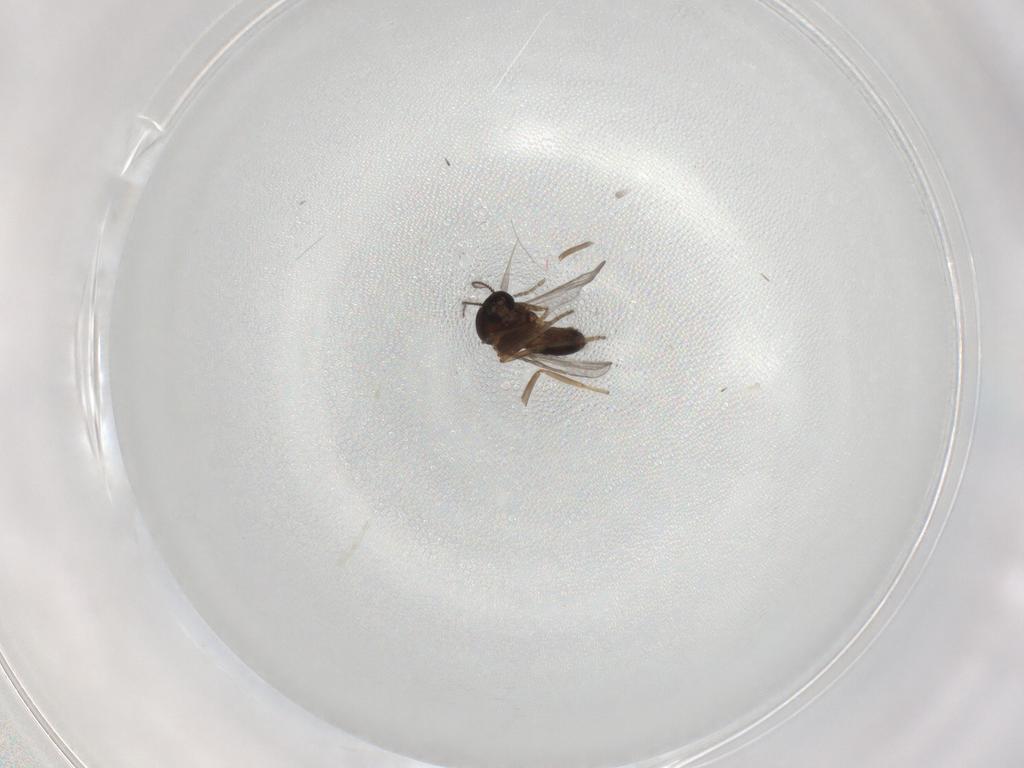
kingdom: Animalia
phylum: Arthropoda
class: Insecta
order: Diptera
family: Ceratopogonidae
